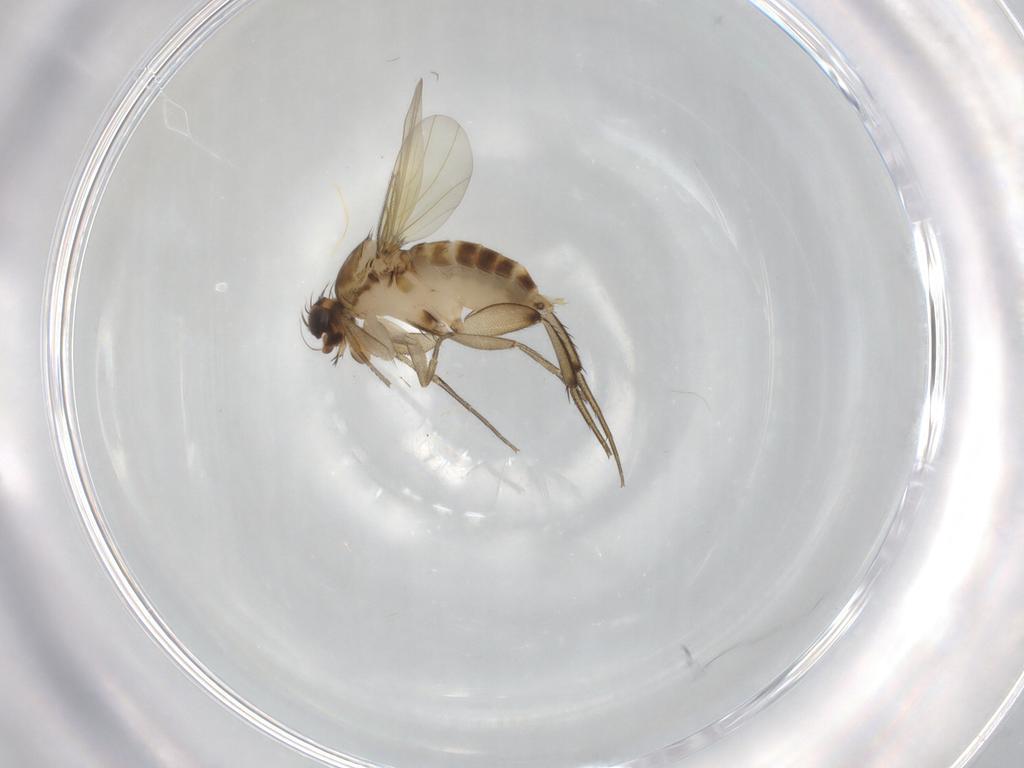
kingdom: Animalia
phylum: Arthropoda
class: Insecta
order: Diptera
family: Phoridae
